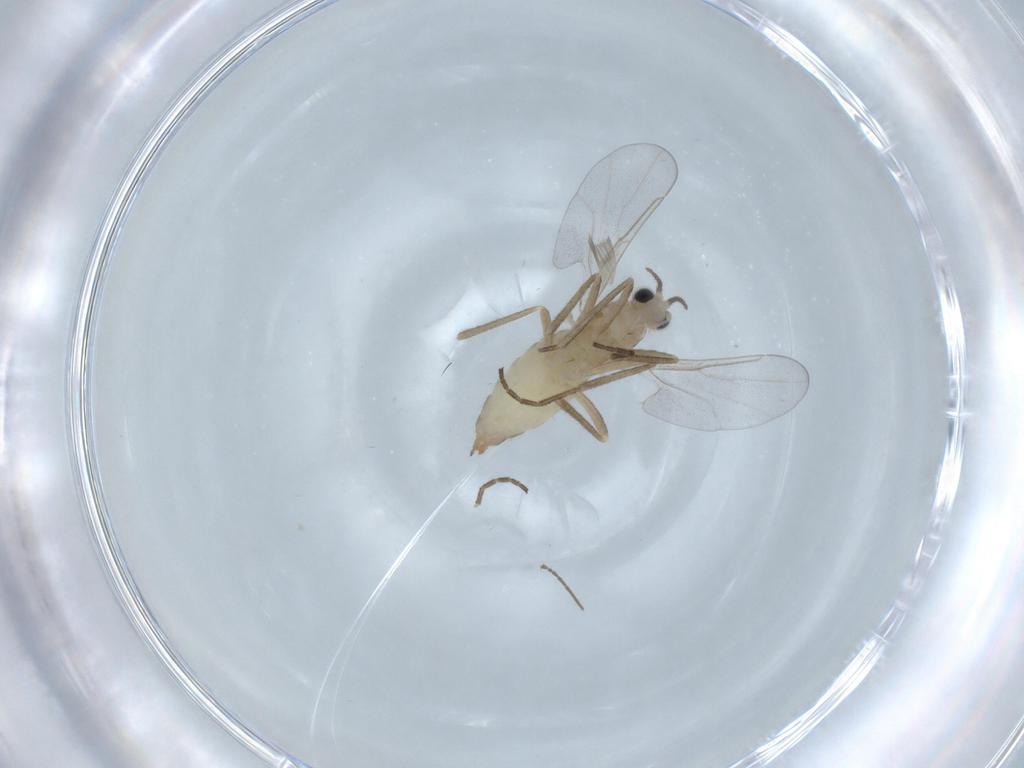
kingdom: Animalia
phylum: Arthropoda
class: Insecta
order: Diptera
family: Cecidomyiidae
